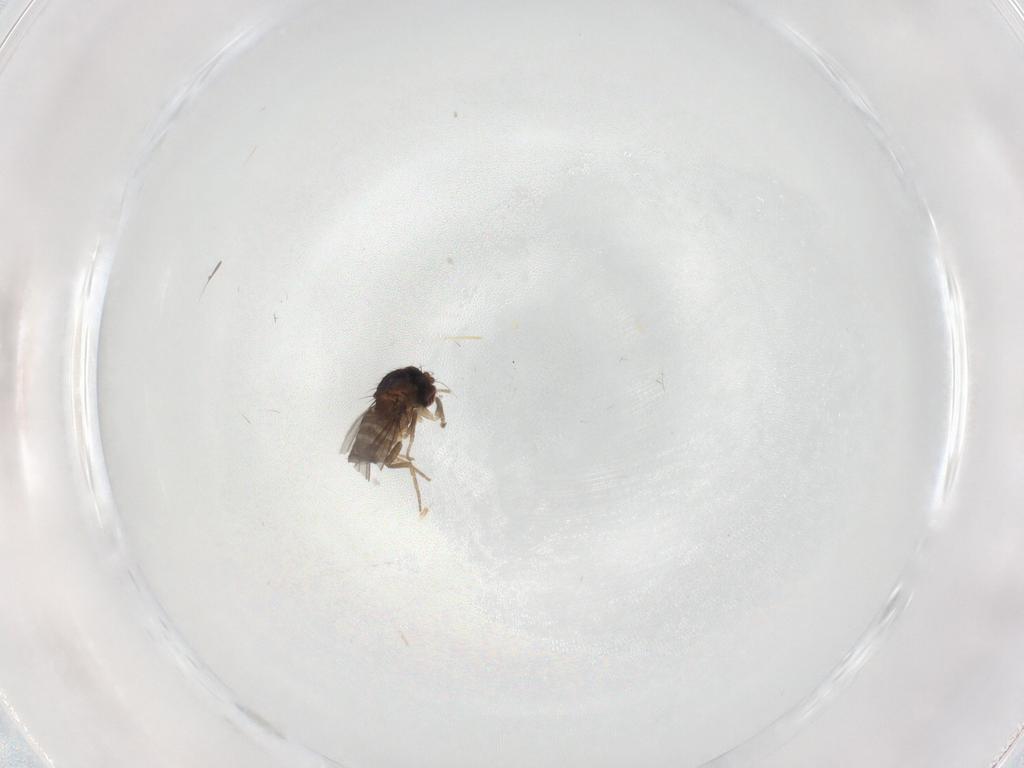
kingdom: Animalia
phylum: Arthropoda
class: Insecta
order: Diptera
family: Dolichopodidae
